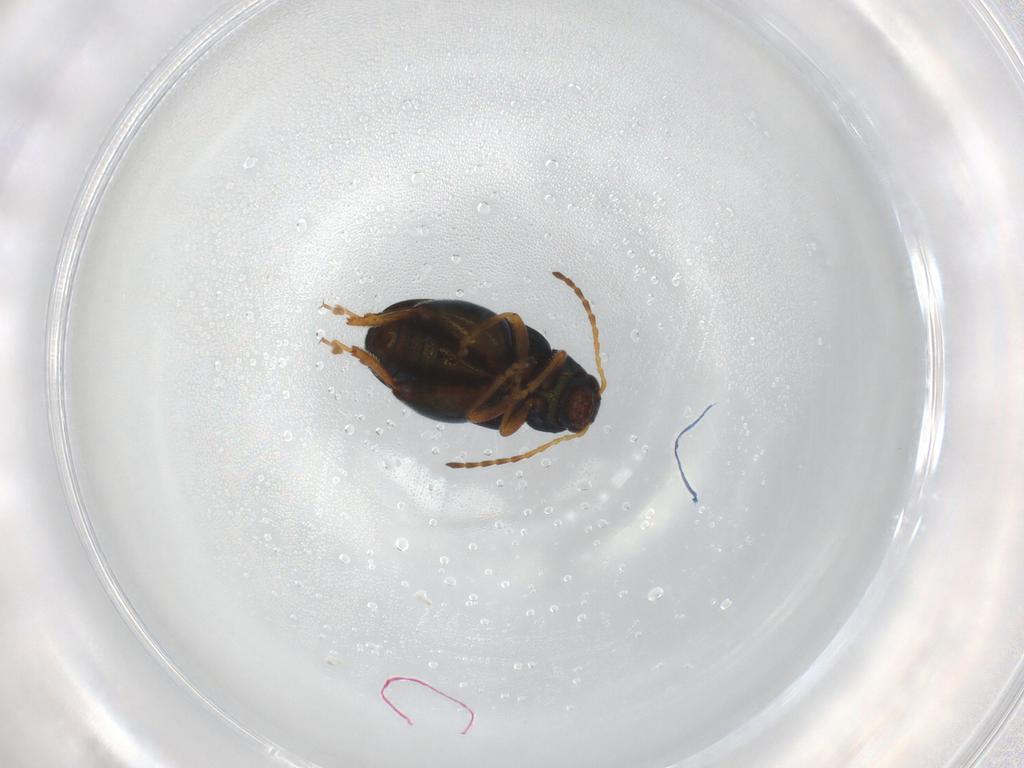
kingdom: Animalia
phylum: Arthropoda
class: Insecta
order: Coleoptera
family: Chrysomelidae
